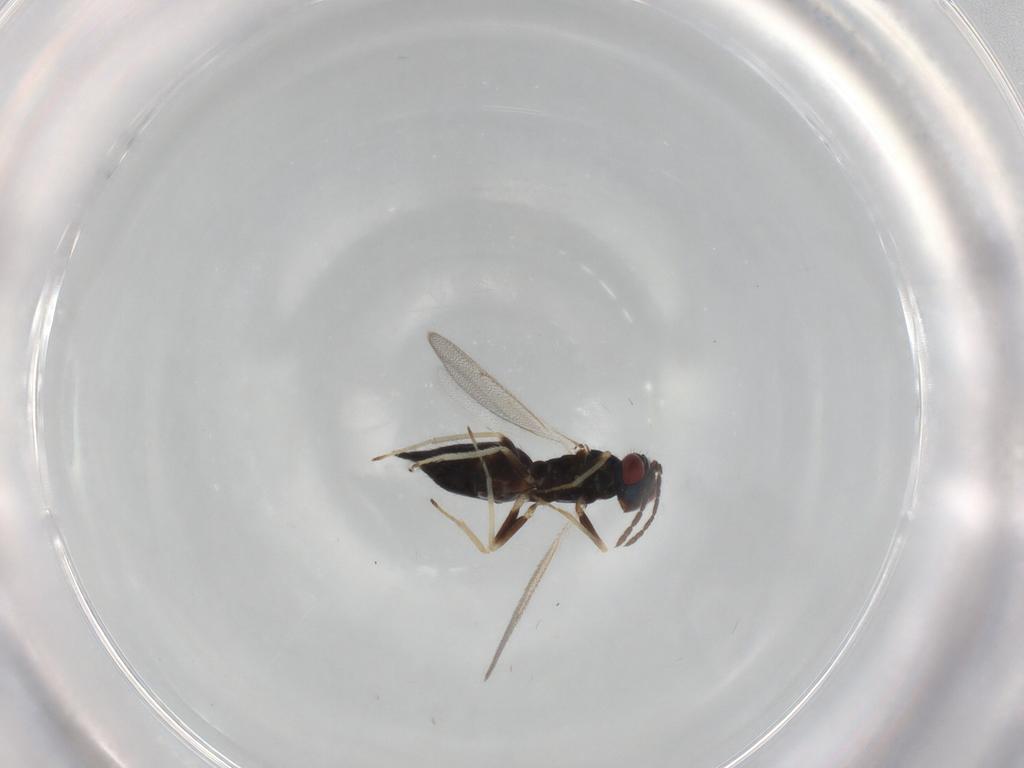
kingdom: Animalia
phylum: Arthropoda
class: Insecta
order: Hymenoptera
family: Eulophidae
